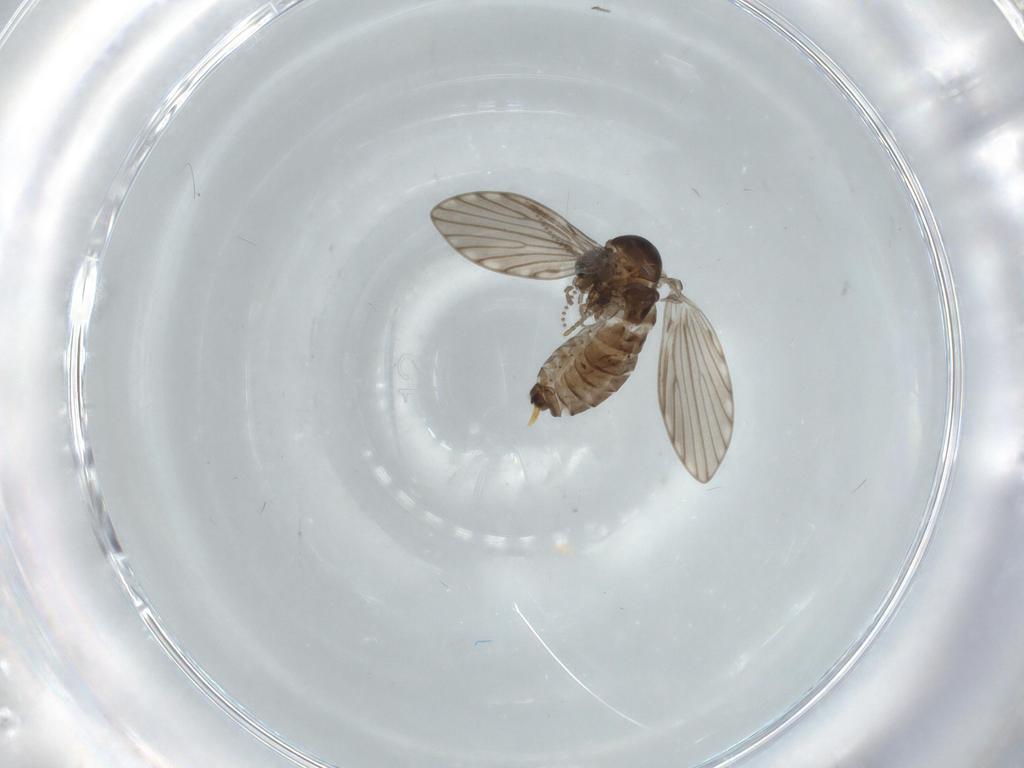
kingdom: Animalia
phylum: Arthropoda
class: Insecta
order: Diptera
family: Psychodidae
